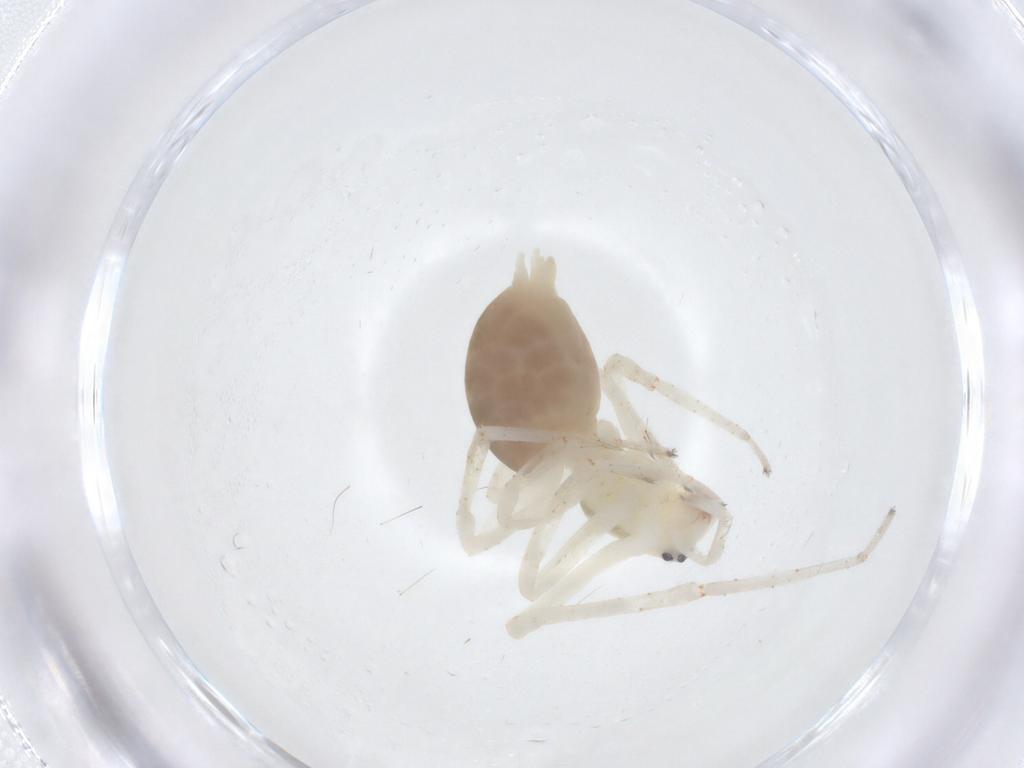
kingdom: Animalia
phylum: Arthropoda
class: Arachnida
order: Araneae
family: Anyphaenidae
